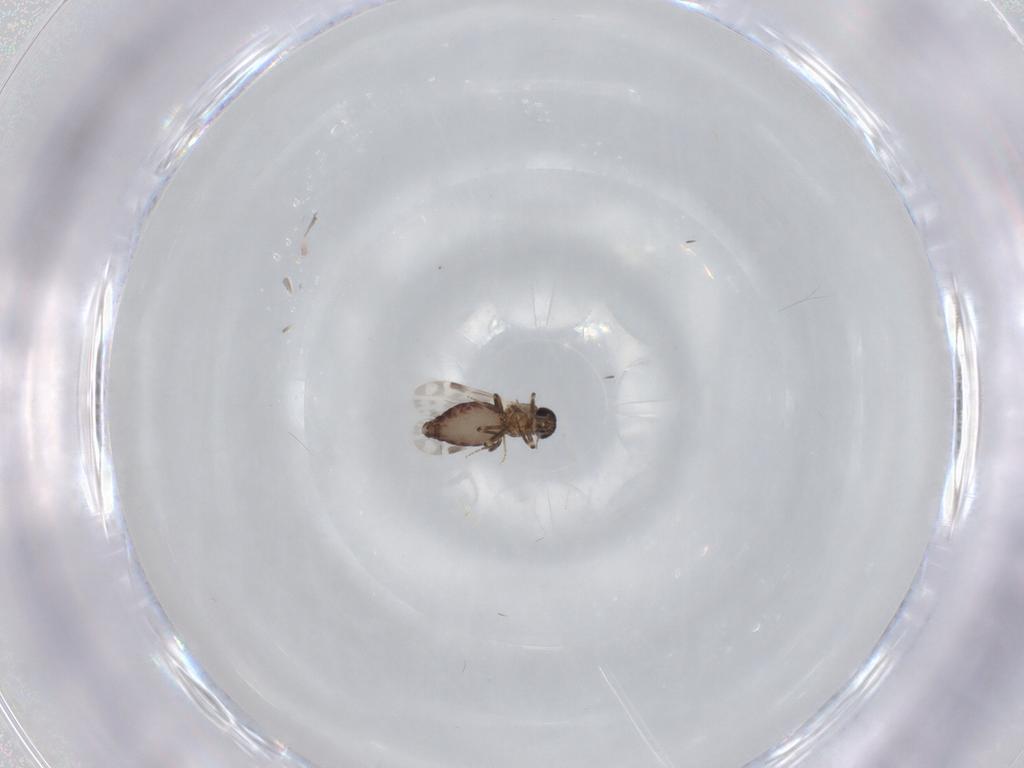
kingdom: Animalia
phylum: Arthropoda
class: Insecta
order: Diptera
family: Ceratopogonidae
